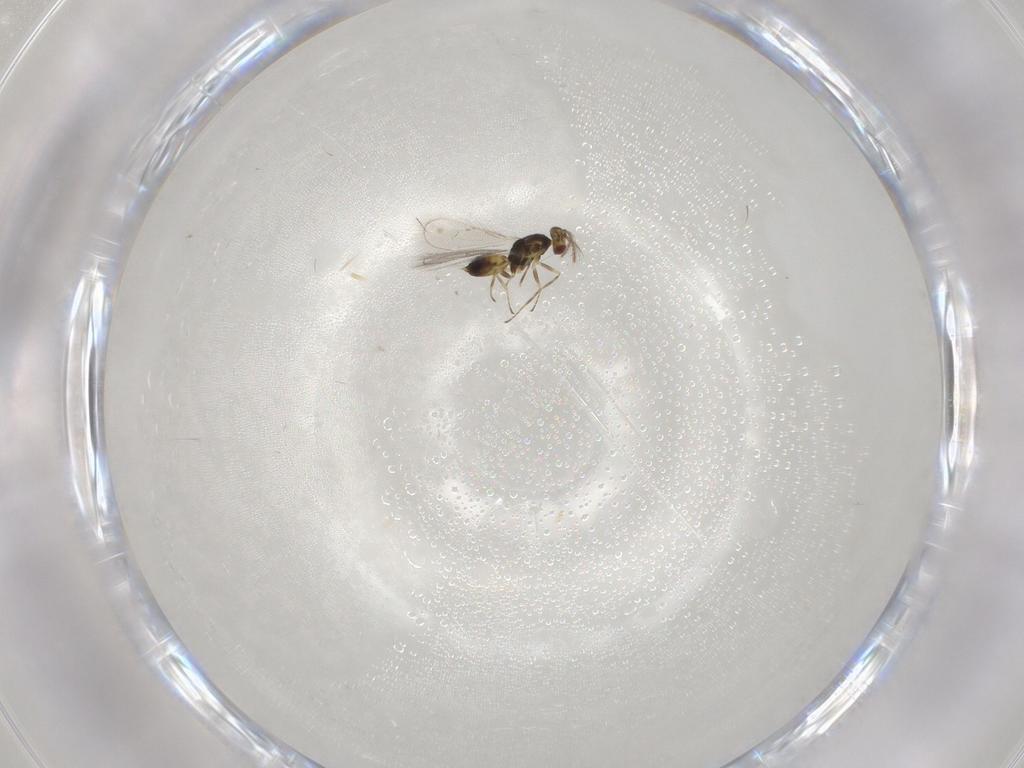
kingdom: Animalia
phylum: Arthropoda
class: Insecta
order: Hymenoptera
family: Eulophidae
